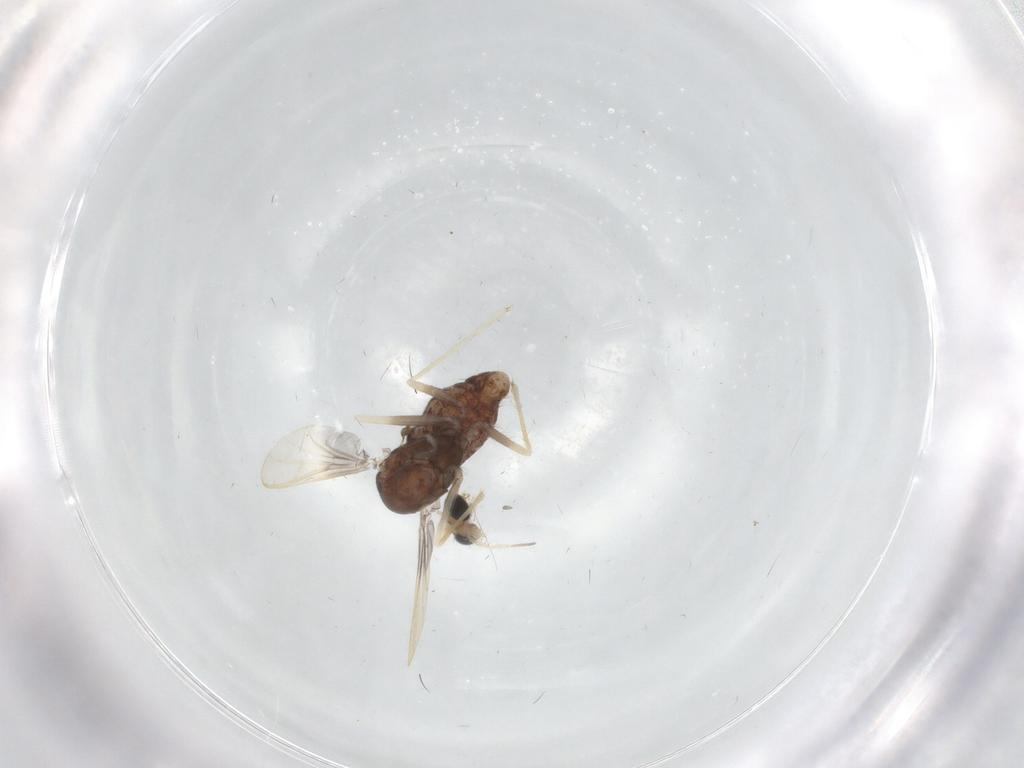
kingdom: Animalia
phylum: Arthropoda
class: Insecta
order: Diptera
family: Chironomidae
